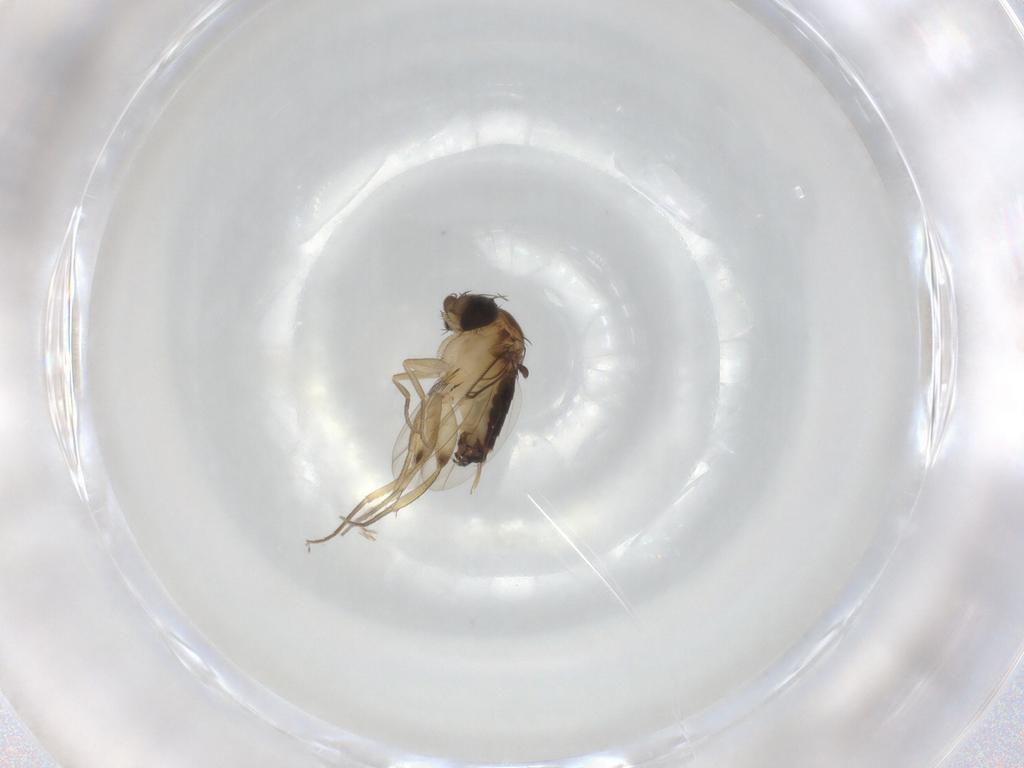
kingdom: Animalia
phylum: Arthropoda
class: Insecta
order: Diptera
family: Phoridae
